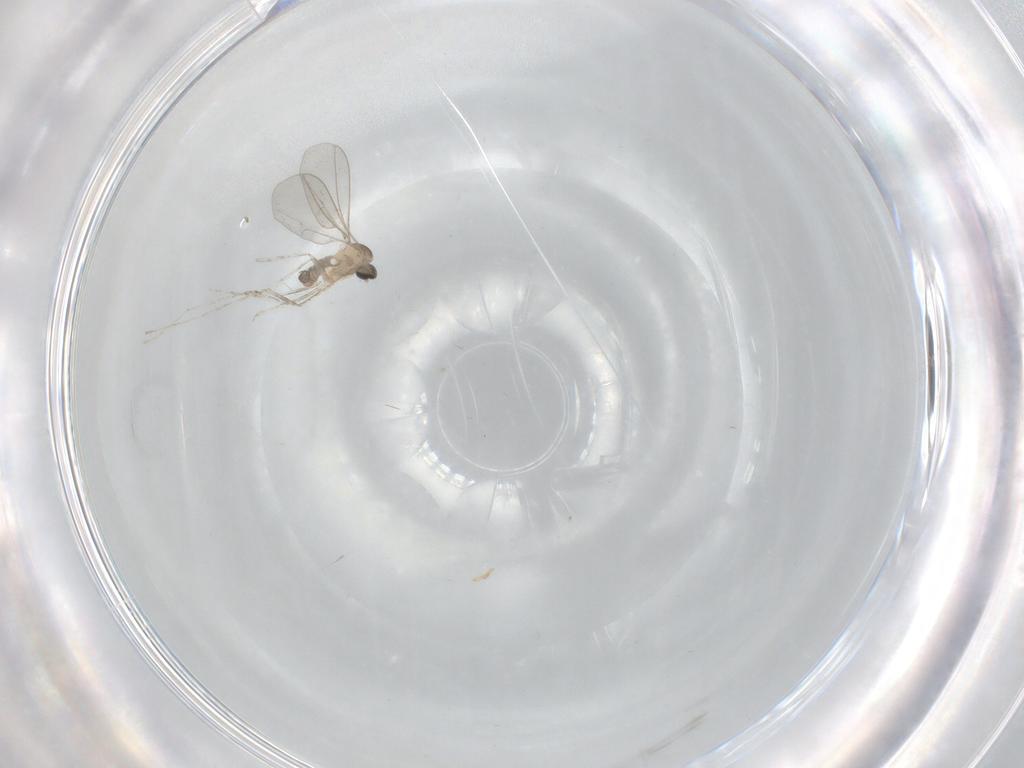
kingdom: Animalia
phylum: Arthropoda
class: Insecta
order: Diptera
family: Cecidomyiidae
